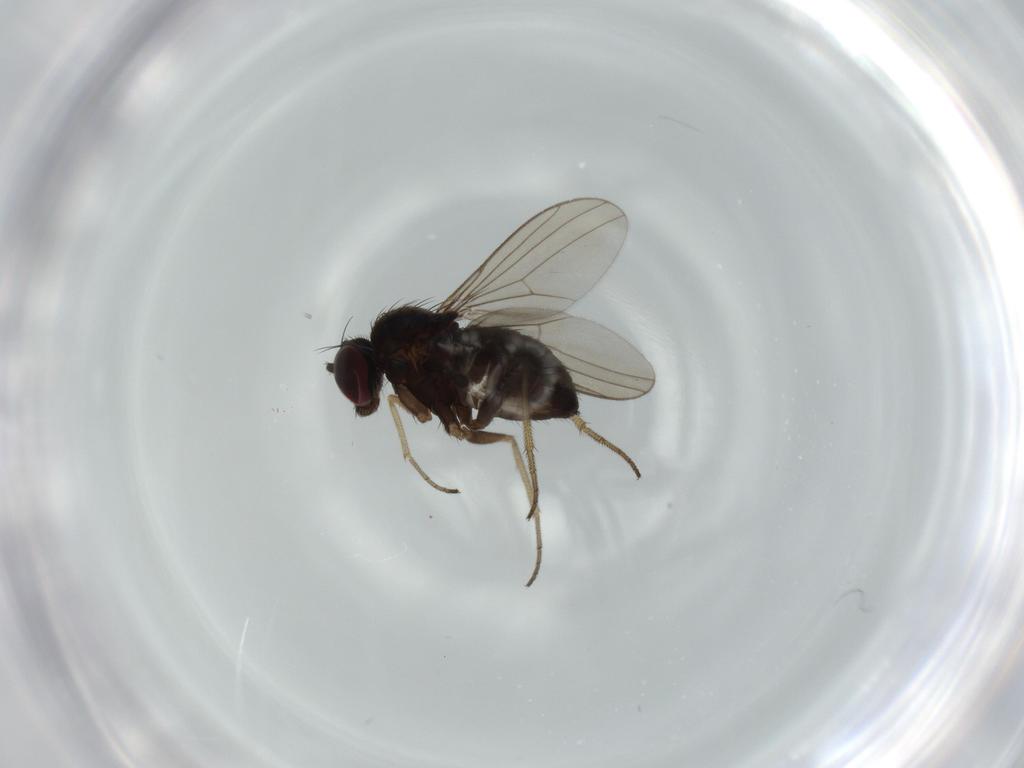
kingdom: Animalia
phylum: Arthropoda
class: Insecta
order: Diptera
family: Dolichopodidae
